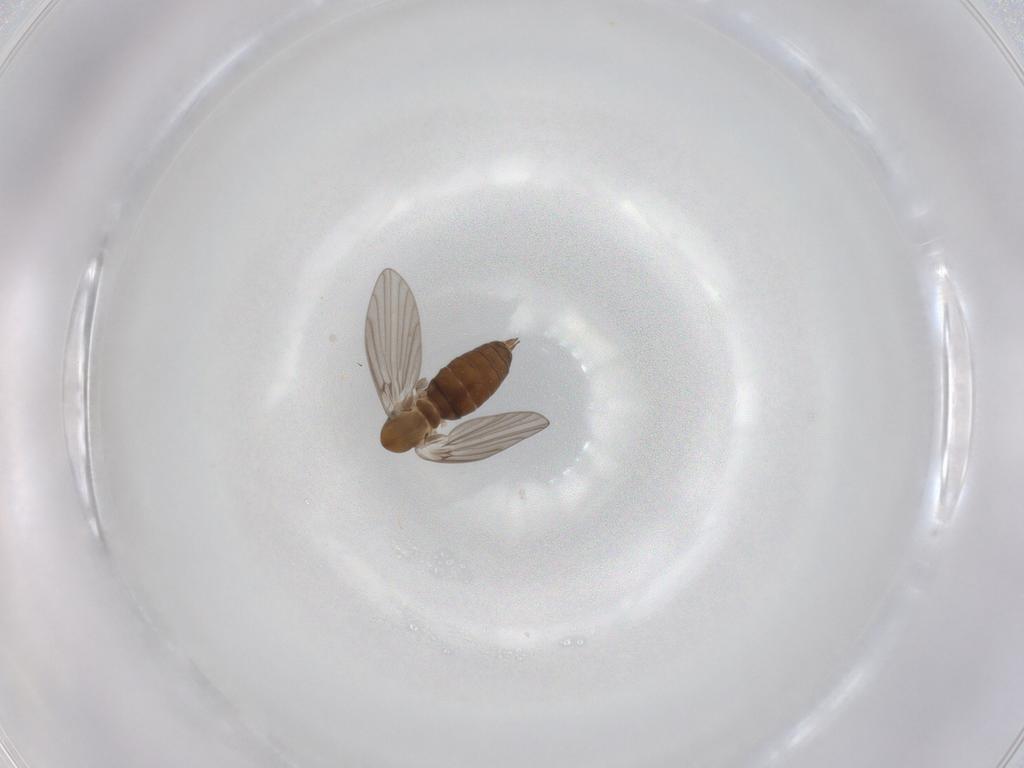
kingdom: Animalia
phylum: Arthropoda
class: Insecta
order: Diptera
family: Psychodidae
